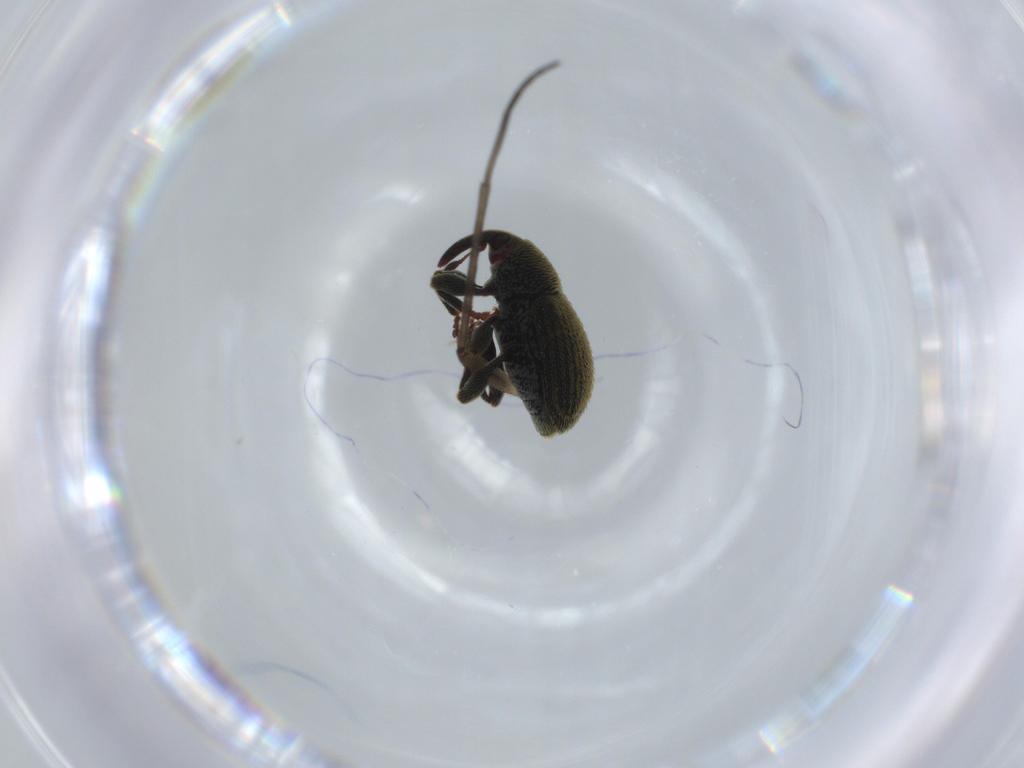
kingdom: Animalia
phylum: Arthropoda
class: Insecta
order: Coleoptera
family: Curculionidae
